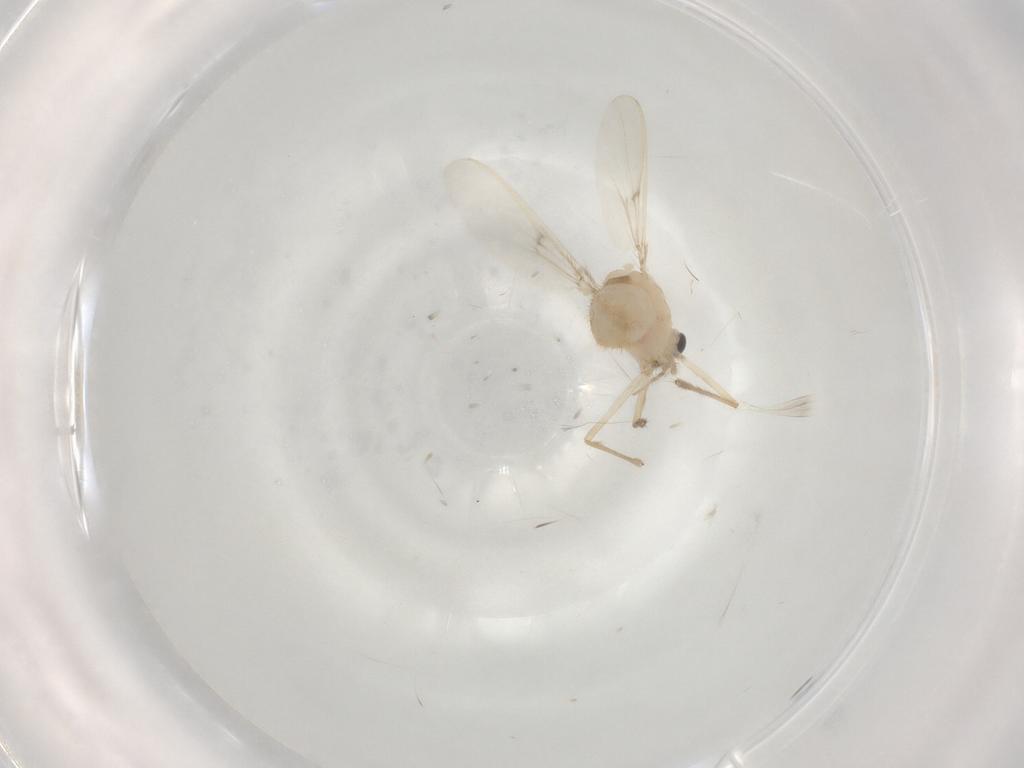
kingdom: Animalia
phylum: Arthropoda
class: Insecta
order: Diptera
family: Chironomidae
